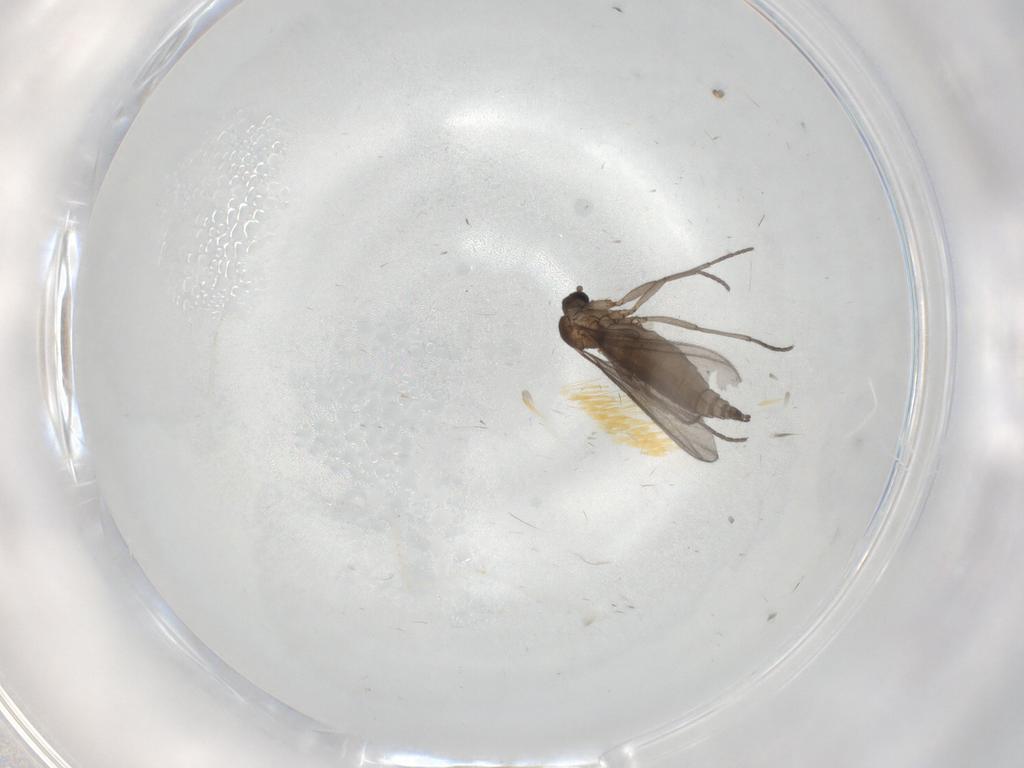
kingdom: Animalia
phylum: Arthropoda
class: Insecta
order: Diptera
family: Sciaridae
